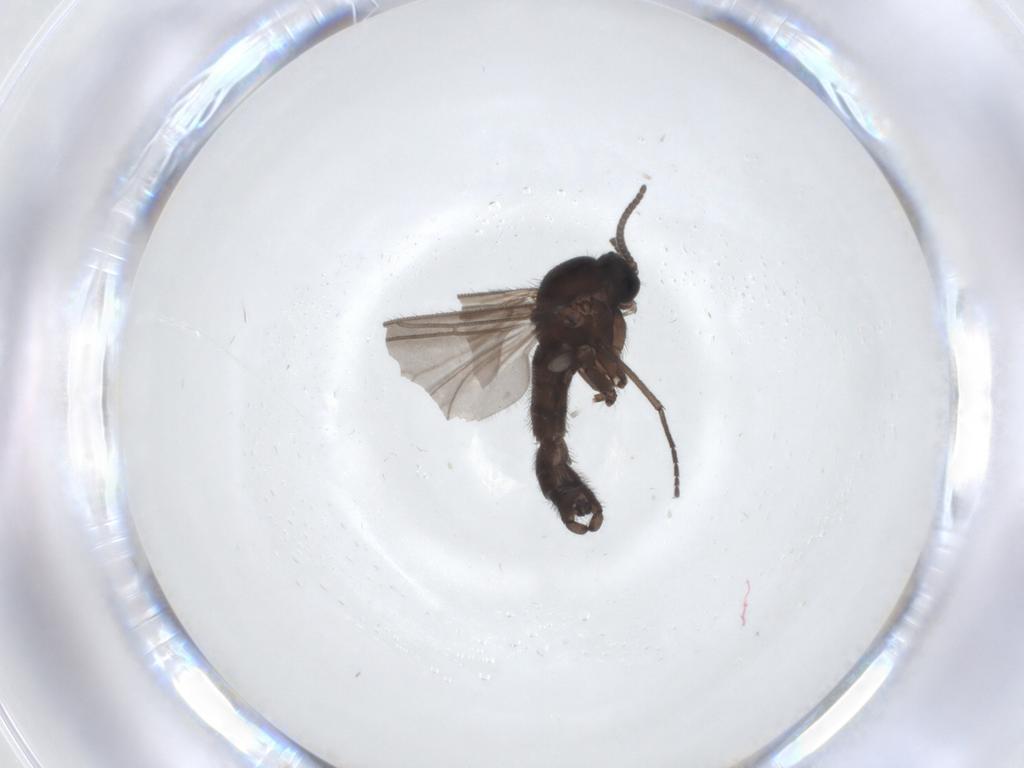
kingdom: Animalia
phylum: Arthropoda
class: Insecta
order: Diptera
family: Sciaridae
